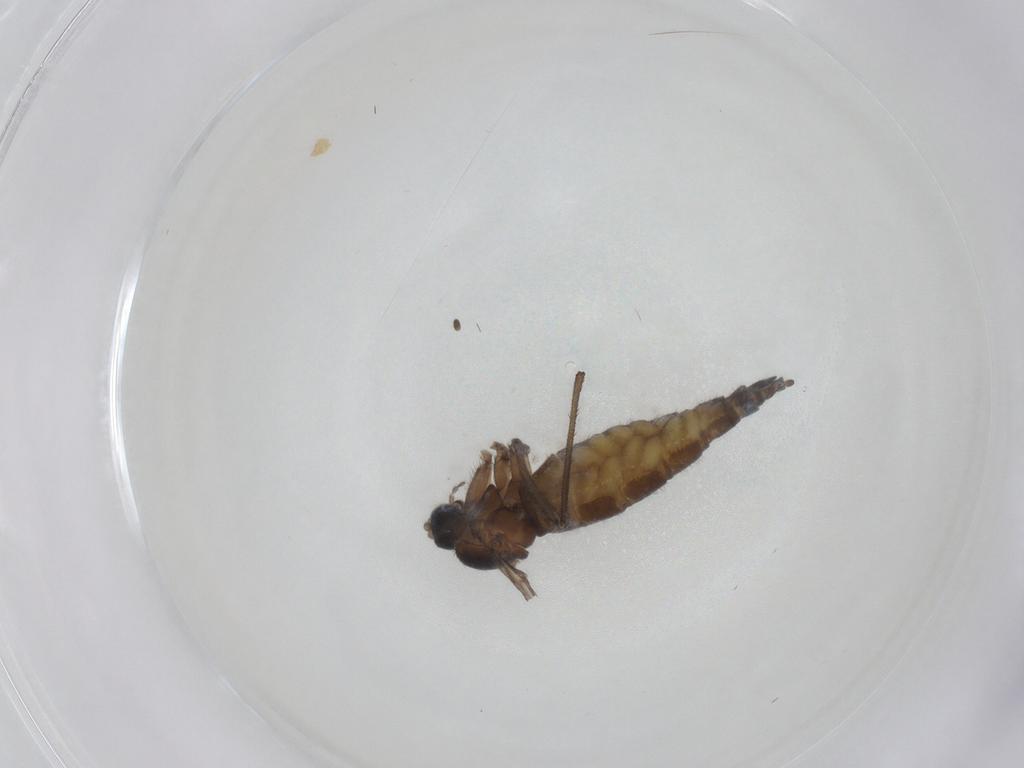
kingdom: Animalia
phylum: Arthropoda
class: Insecta
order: Diptera
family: Sciaridae
